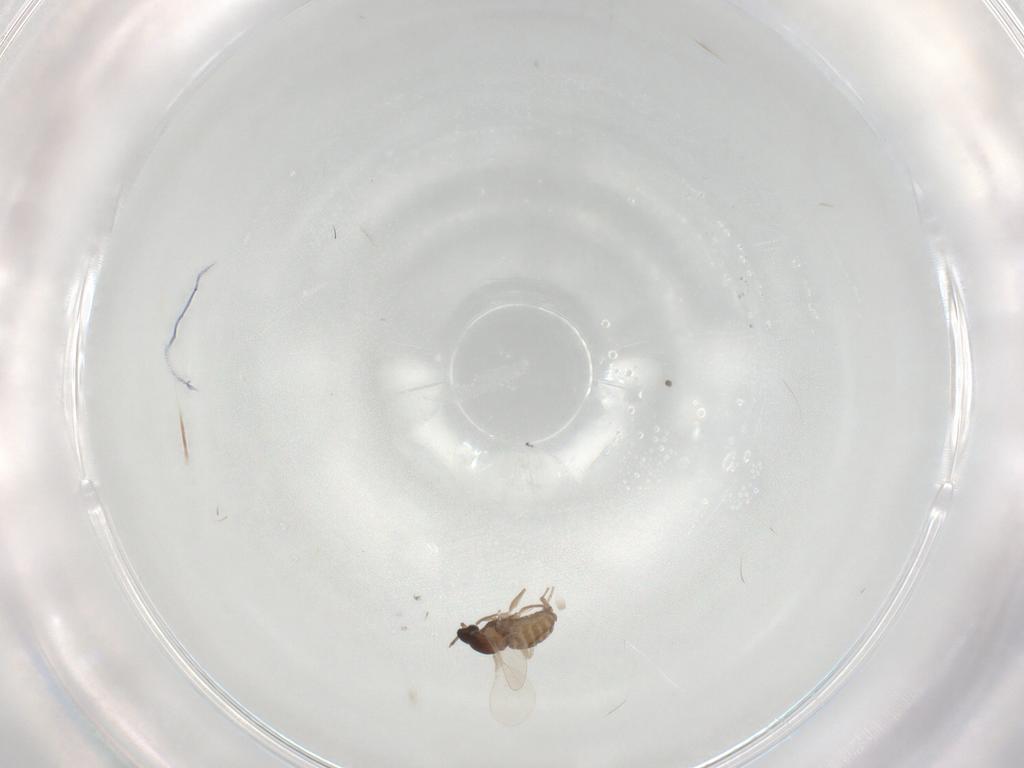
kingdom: Animalia
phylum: Arthropoda
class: Insecta
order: Diptera
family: Cecidomyiidae
